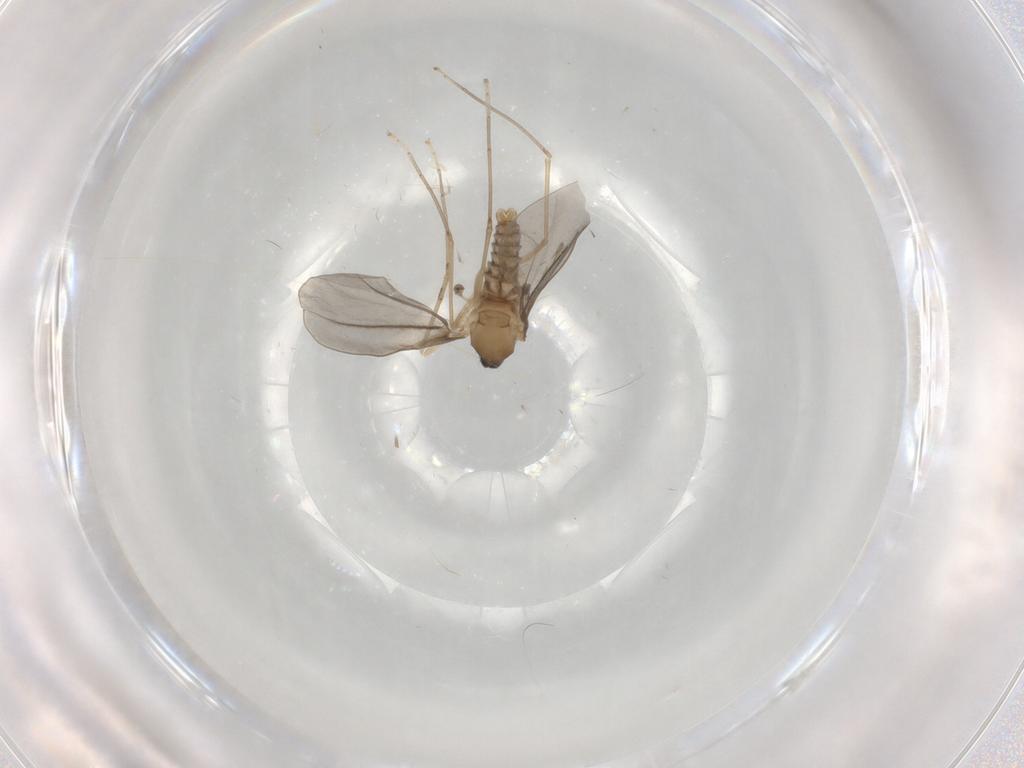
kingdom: Animalia
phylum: Arthropoda
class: Insecta
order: Diptera
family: Cecidomyiidae
